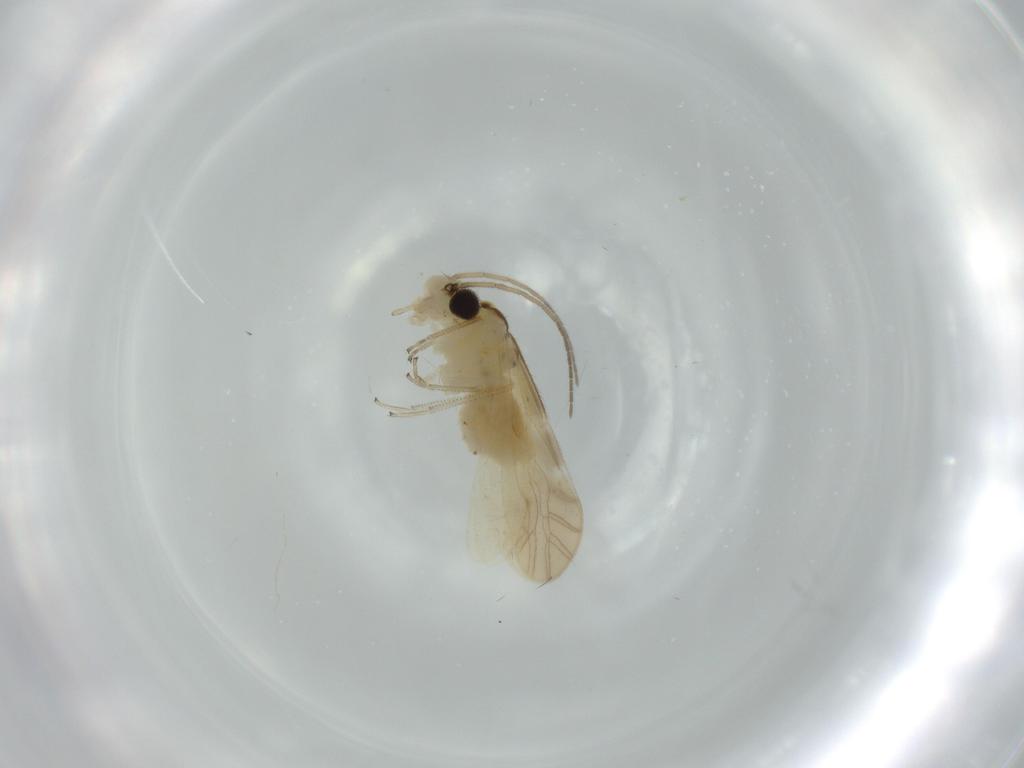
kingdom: Animalia
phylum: Arthropoda
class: Insecta
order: Psocodea
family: Caeciliusidae
